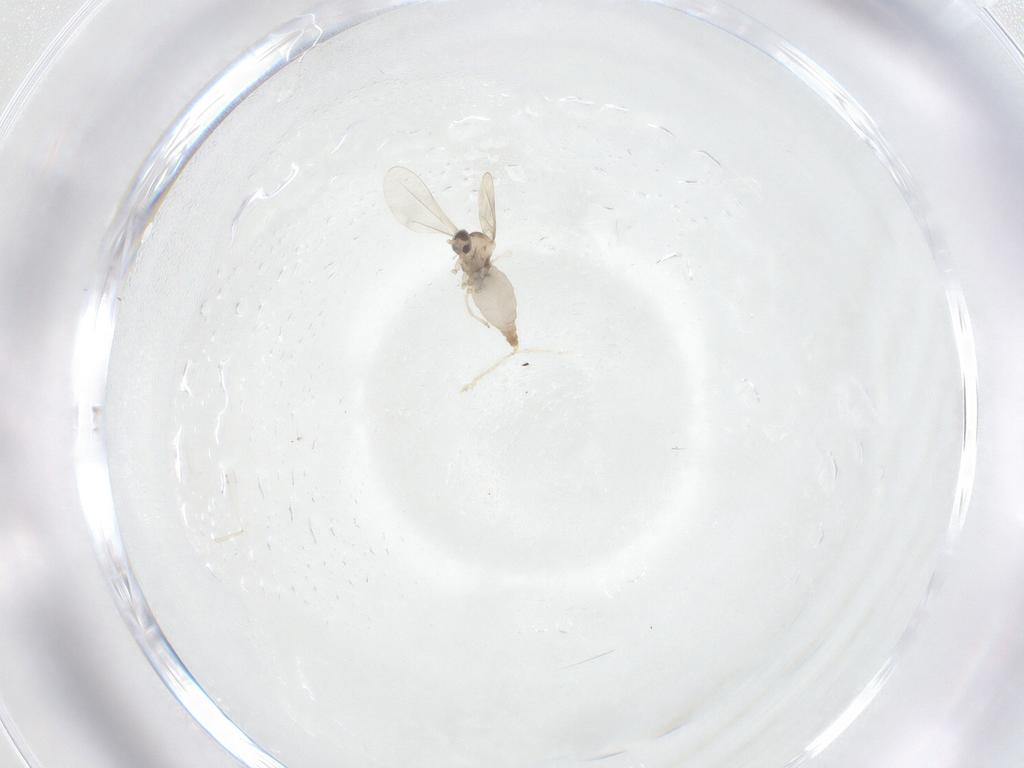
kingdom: Animalia
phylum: Arthropoda
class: Insecta
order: Diptera
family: Cecidomyiidae
